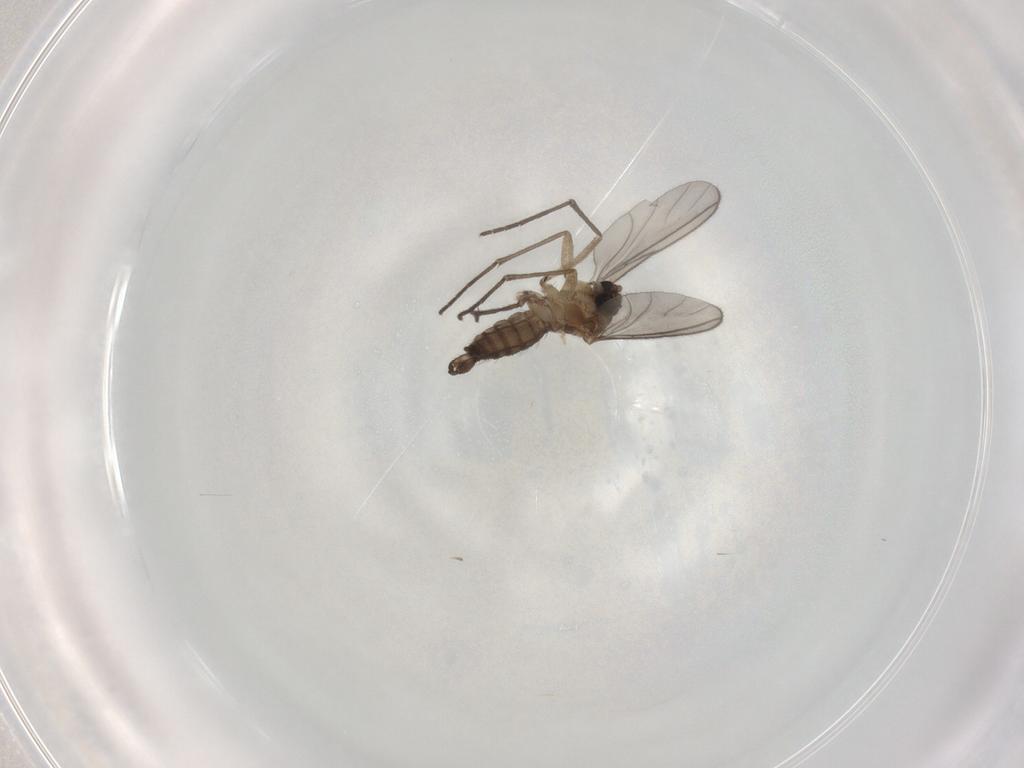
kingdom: Animalia
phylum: Arthropoda
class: Insecta
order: Diptera
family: Cecidomyiidae
